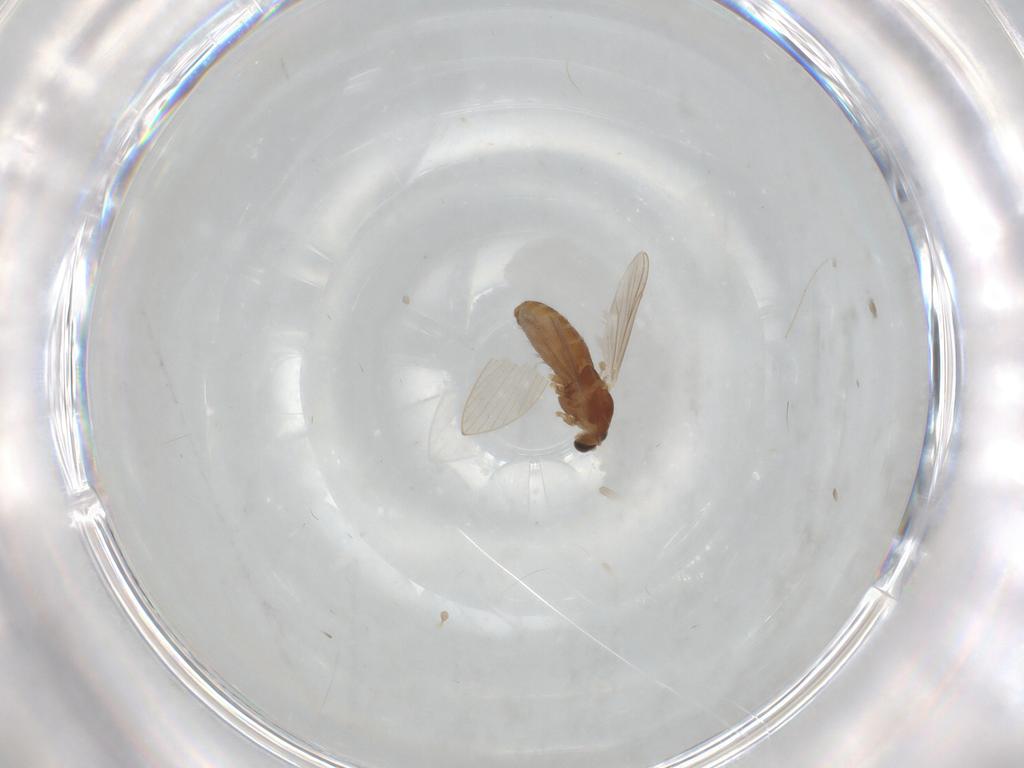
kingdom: Animalia
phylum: Arthropoda
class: Insecta
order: Diptera
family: Chironomidae
